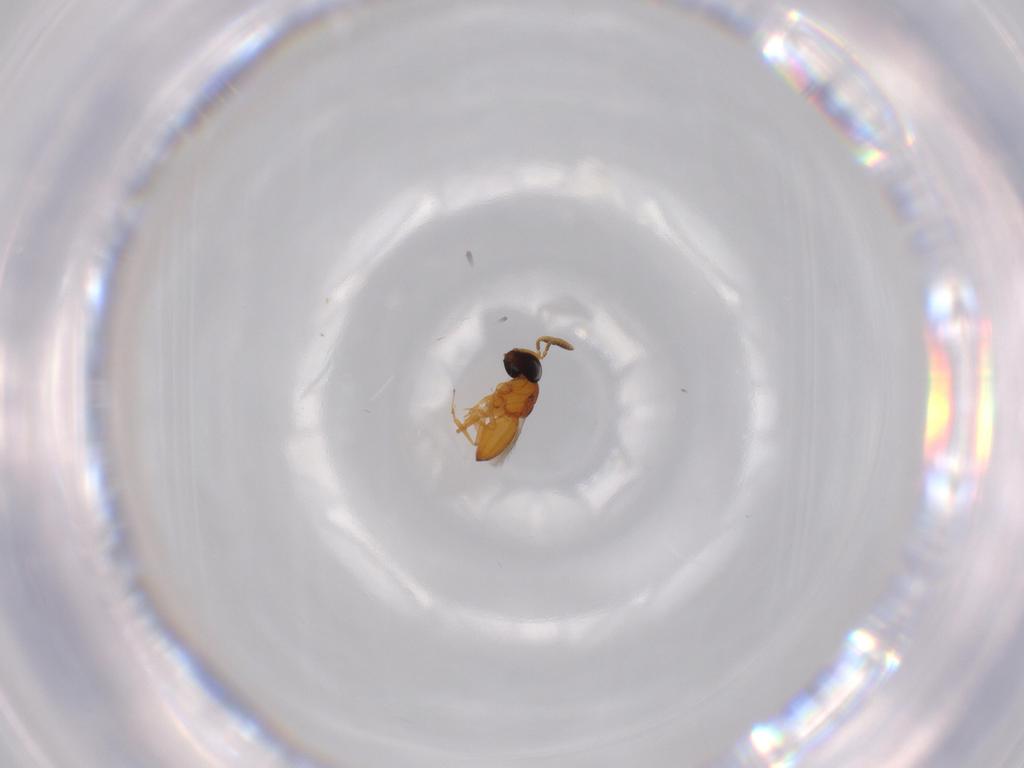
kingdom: Animalia
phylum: Arthropoda
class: Insecta
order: Hymenoptera
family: Scelionidae
